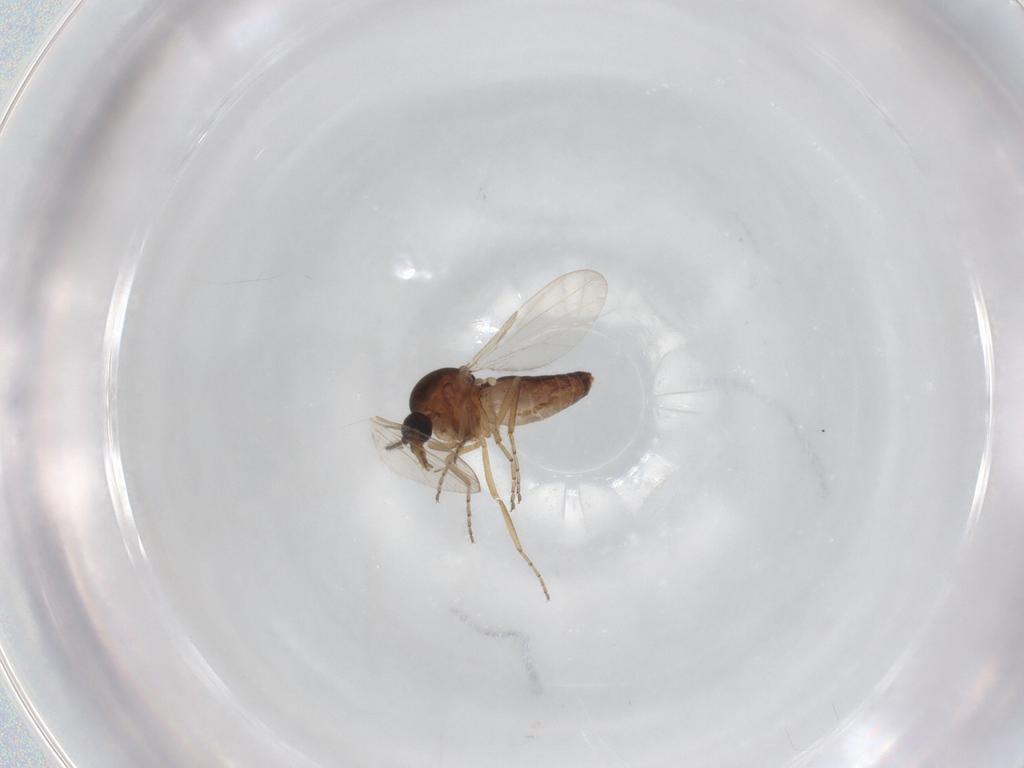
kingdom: Animalia
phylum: Arthropoda
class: Insecta
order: Diptera
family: Ceratopogonidae
